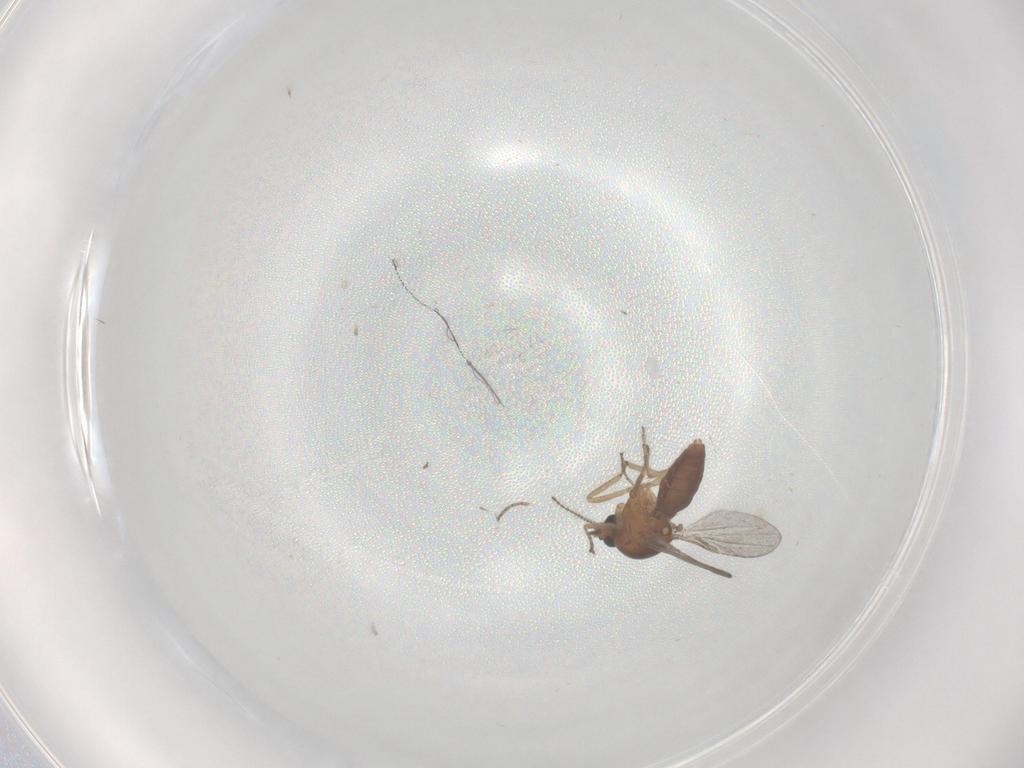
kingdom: Animalia
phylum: Arthropoda
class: Insecta
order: Diptera
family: Ceratopogonidae
